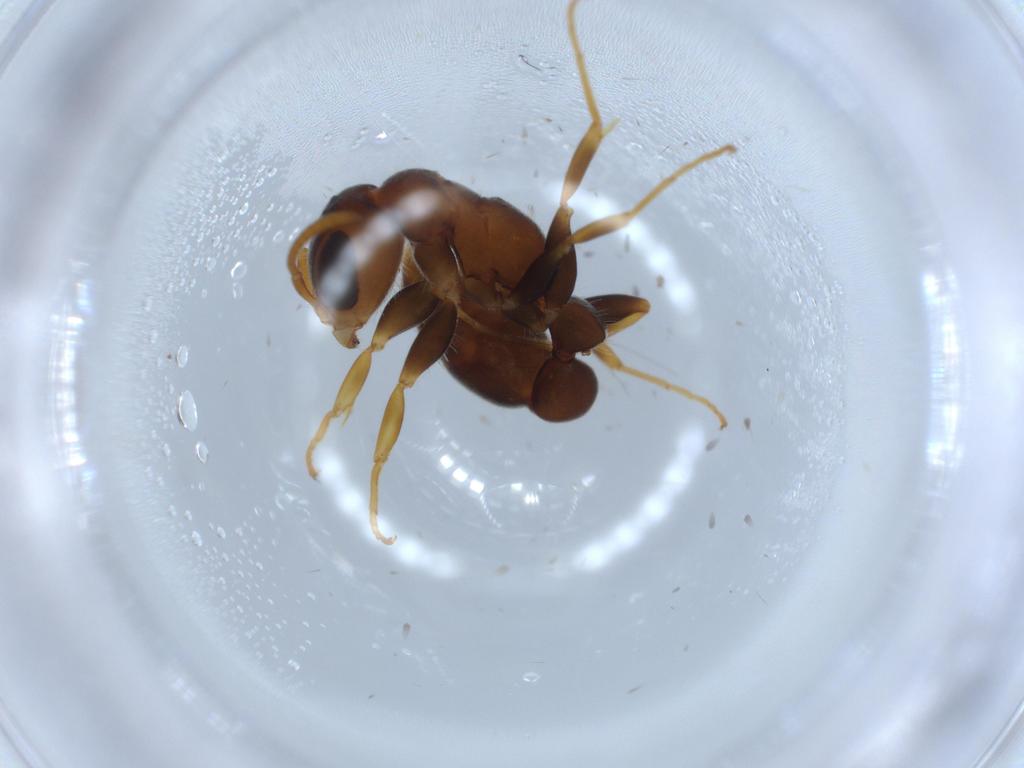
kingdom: Animalia
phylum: Arthropoda
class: Insecta
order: Hymenoptera
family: Formicidae
